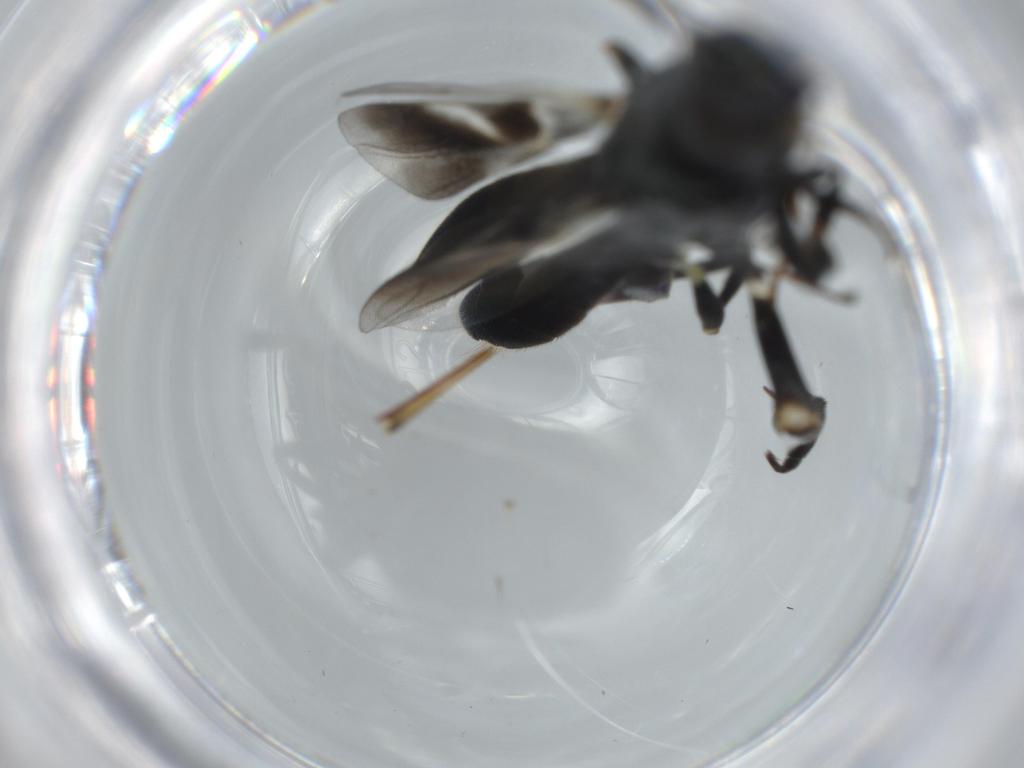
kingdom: Animalia
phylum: Arthropoda
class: Insecta
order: Hymenoptera
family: Eupelmidae
